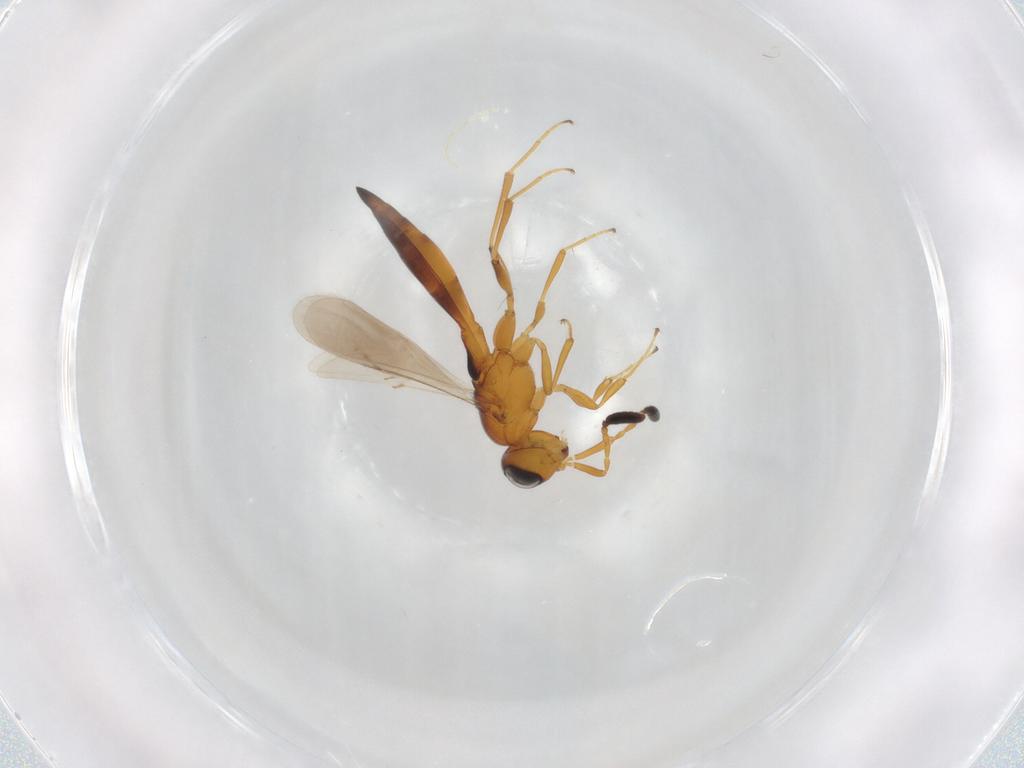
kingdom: Animalia
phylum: Arthropoda
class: Insecta
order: Hymenoptera
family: Scelionidae
